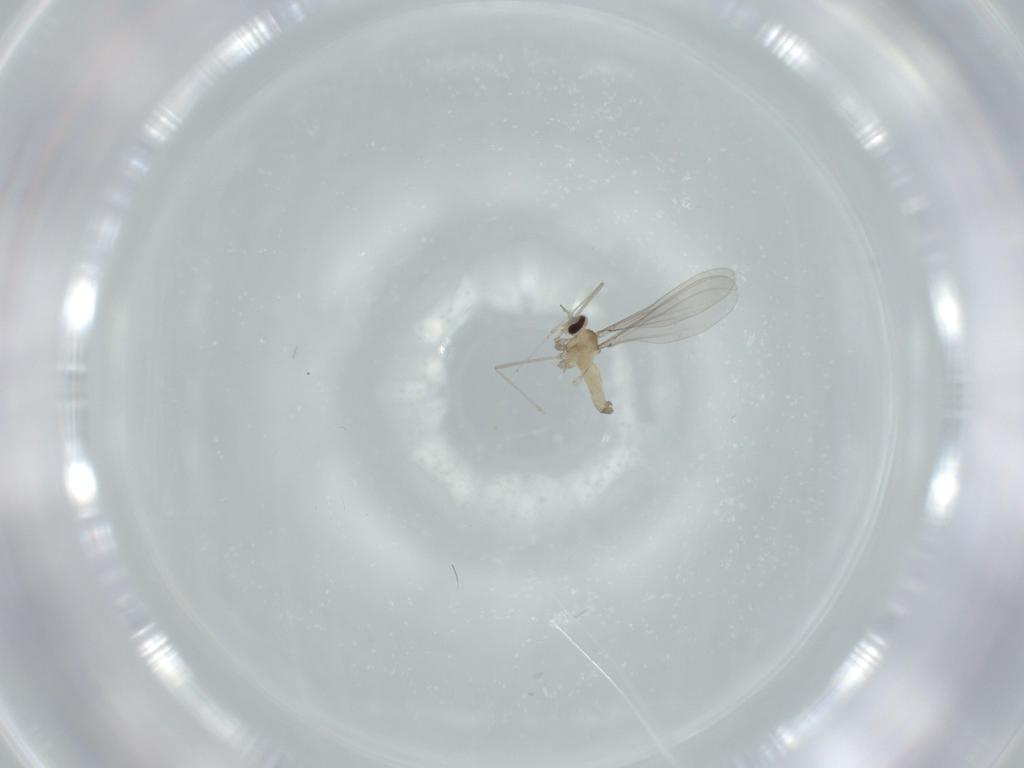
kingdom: Animalia
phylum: Arthropoda
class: Insecta
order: Diptera
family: Cecidomyiidae
